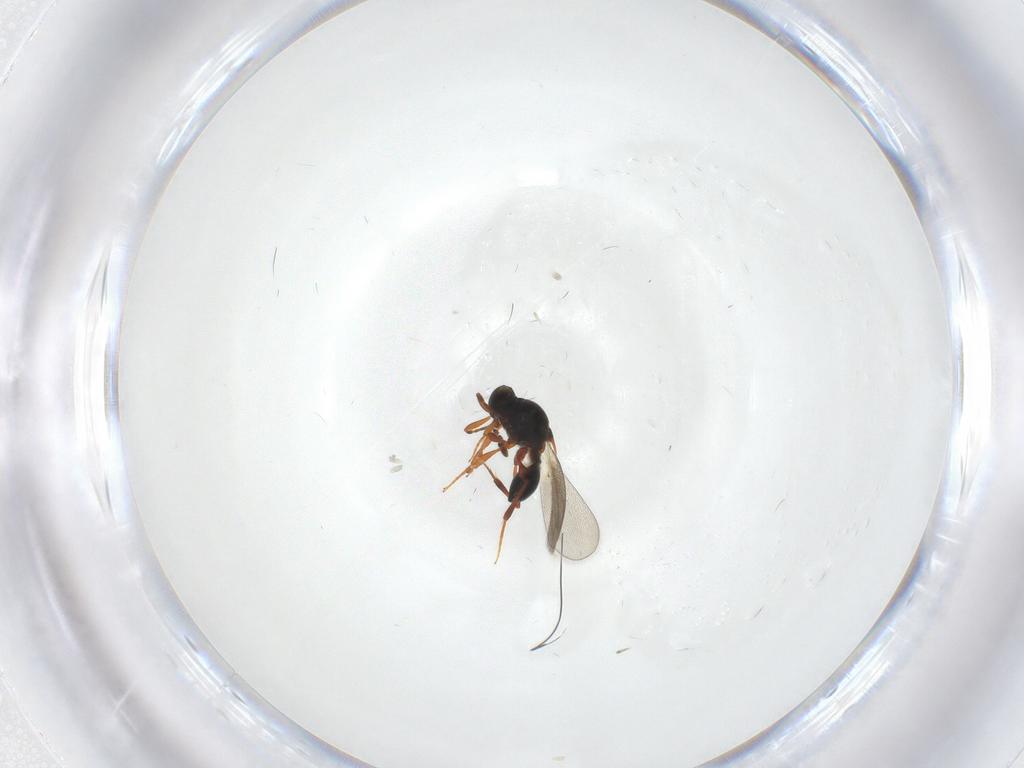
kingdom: Animalia
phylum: Arthropoda
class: Insecta
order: Hymenoptera
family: Platygastridae
